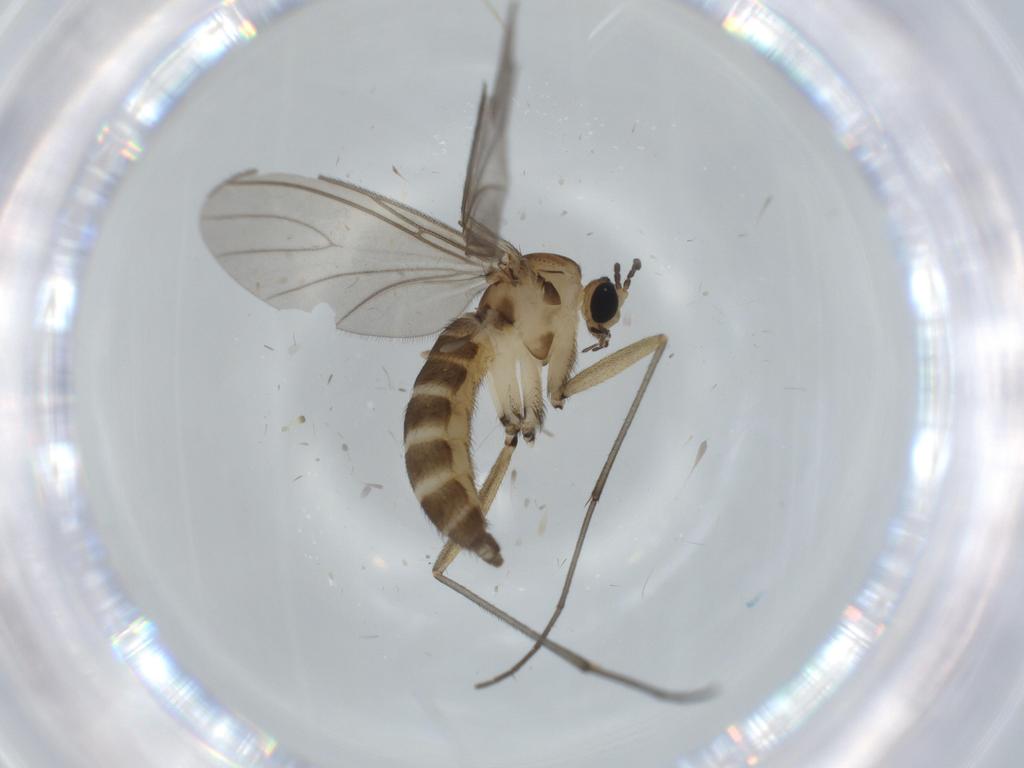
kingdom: Animalia
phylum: Arthropoda
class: Insecta
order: Diptera
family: Sciaridae
